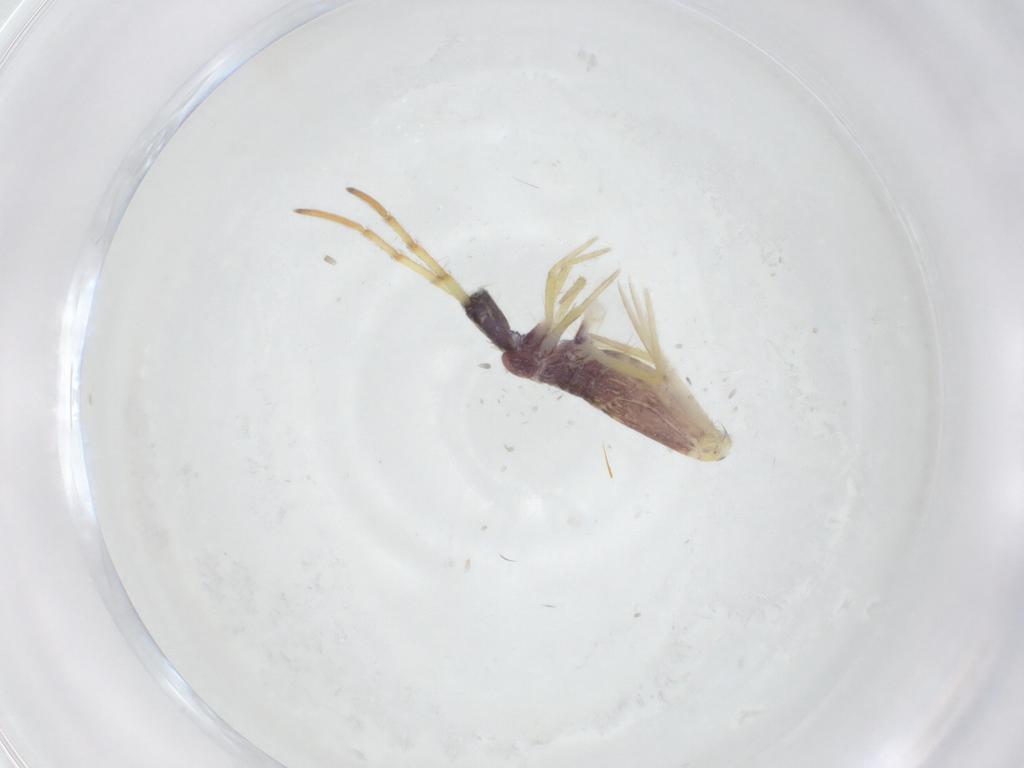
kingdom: Animalia
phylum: Arthropoda
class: Collembola
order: Entomobryomorpha
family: Entomobryidae
